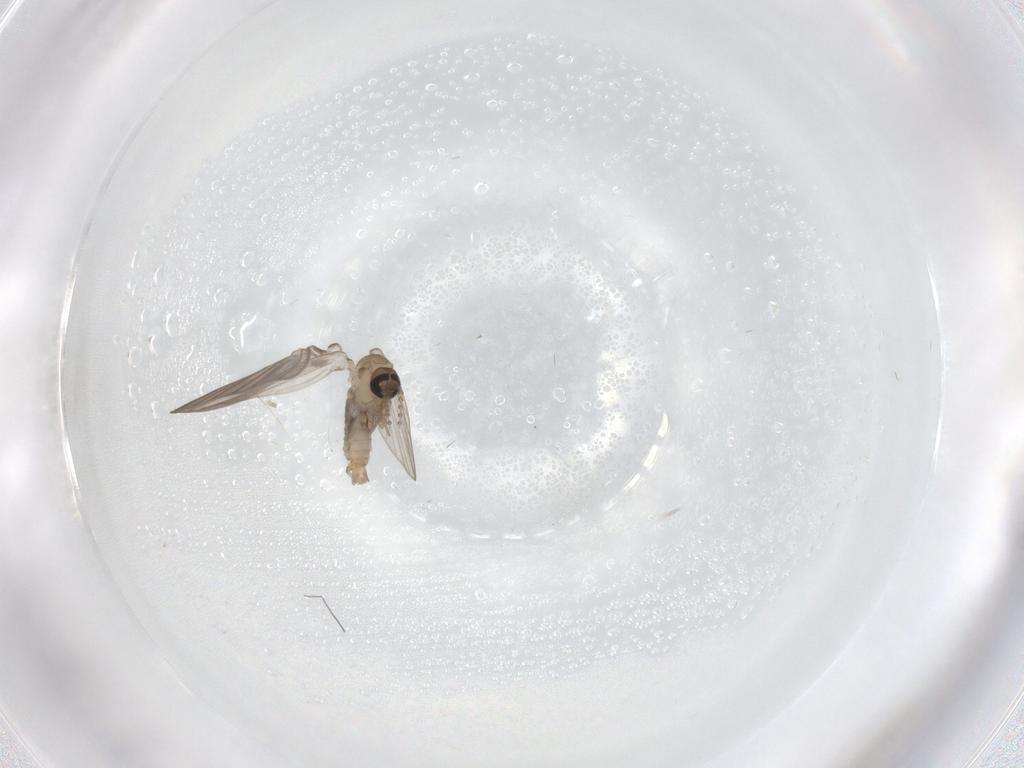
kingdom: Animalia
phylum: Arthropoda
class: Insecta
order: Diptera
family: Psychodidae
